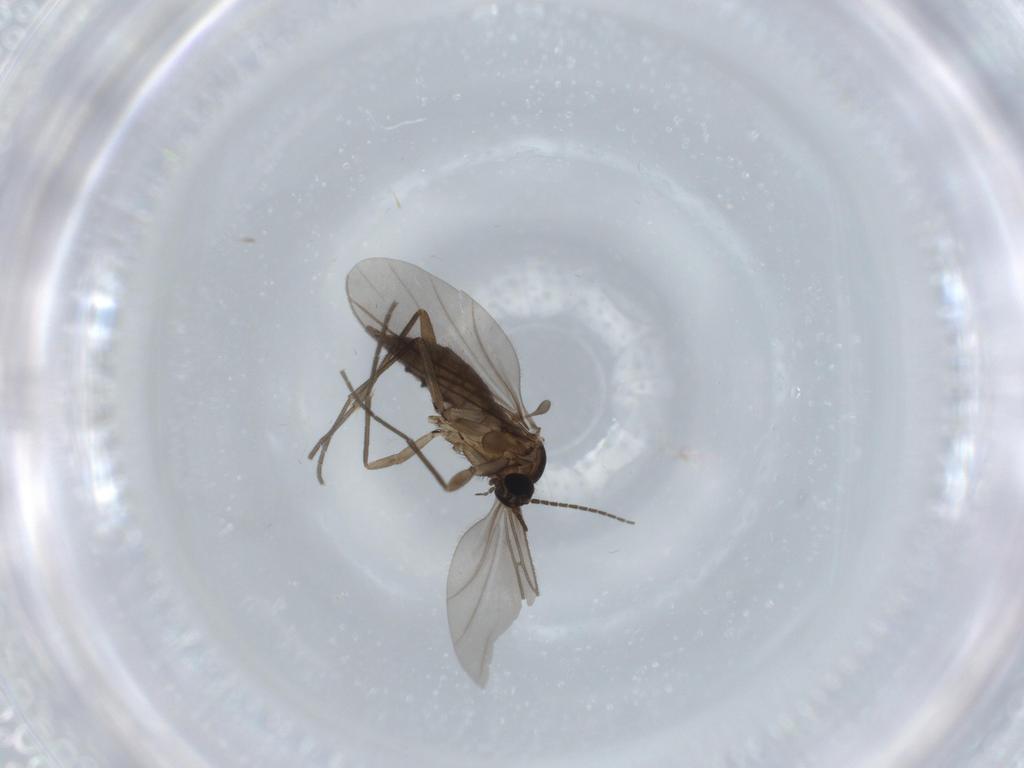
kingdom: Animalia
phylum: Arthropoda
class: Insecta
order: Diptera
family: Sciaridae
